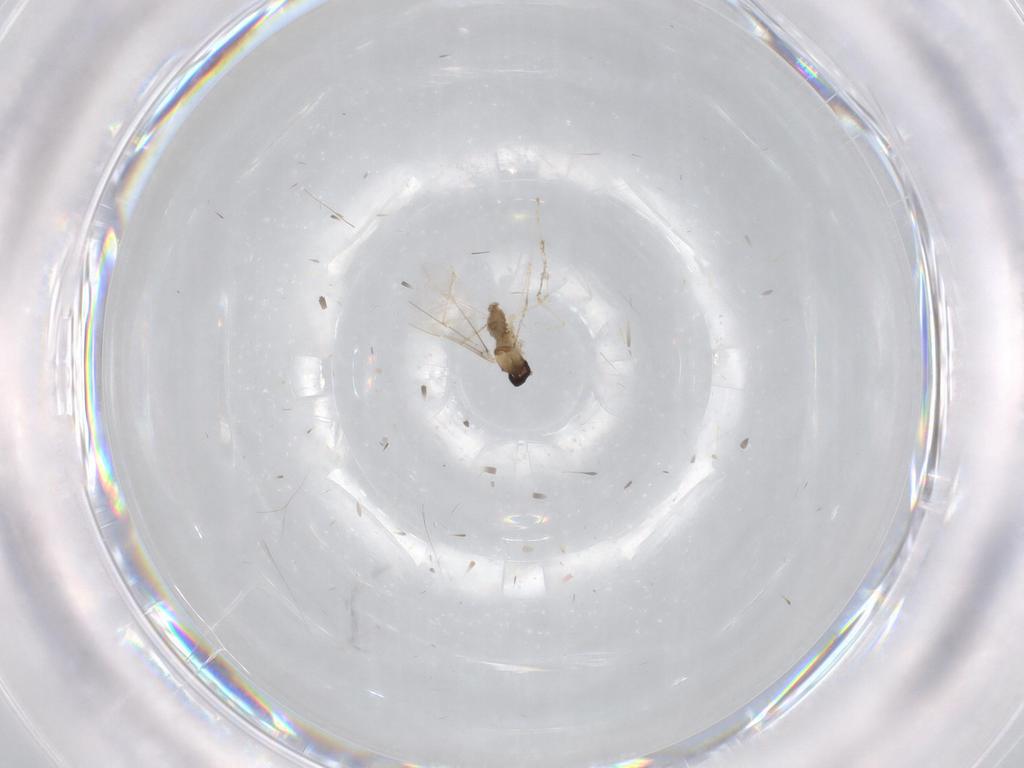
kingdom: Animalia
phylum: Arthropoda
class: Insecta
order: Diptera
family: Cecidomyiidae
